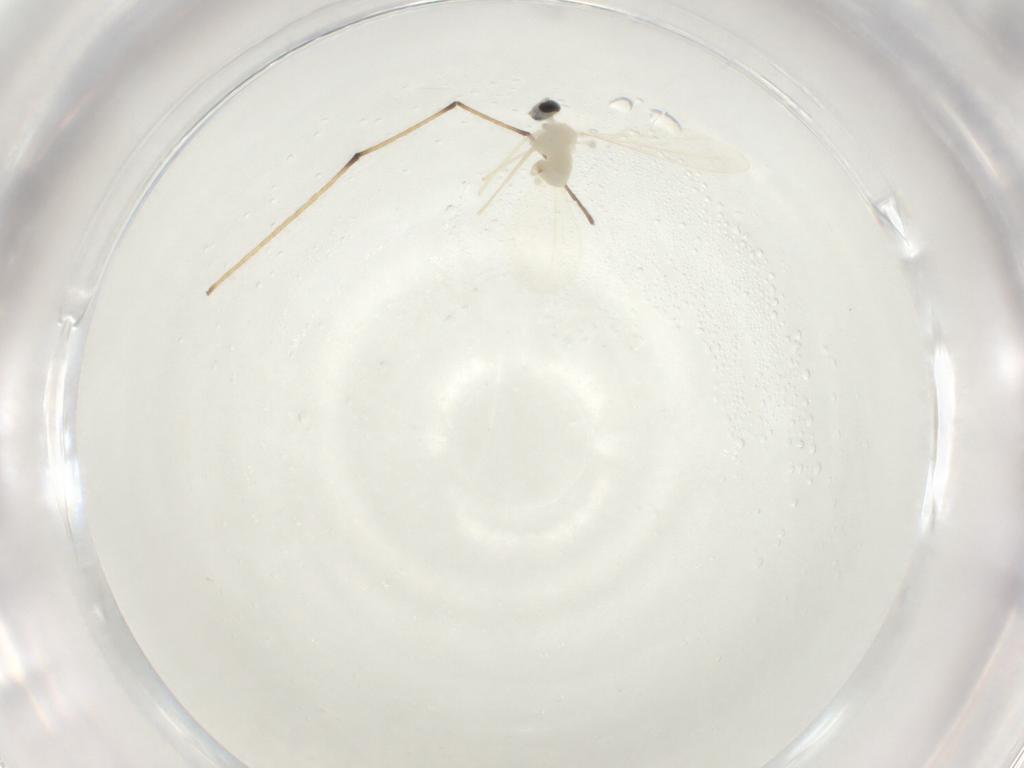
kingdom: Animalia
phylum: Arthropoda
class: Insecta
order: Diptera
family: Chironomidae
